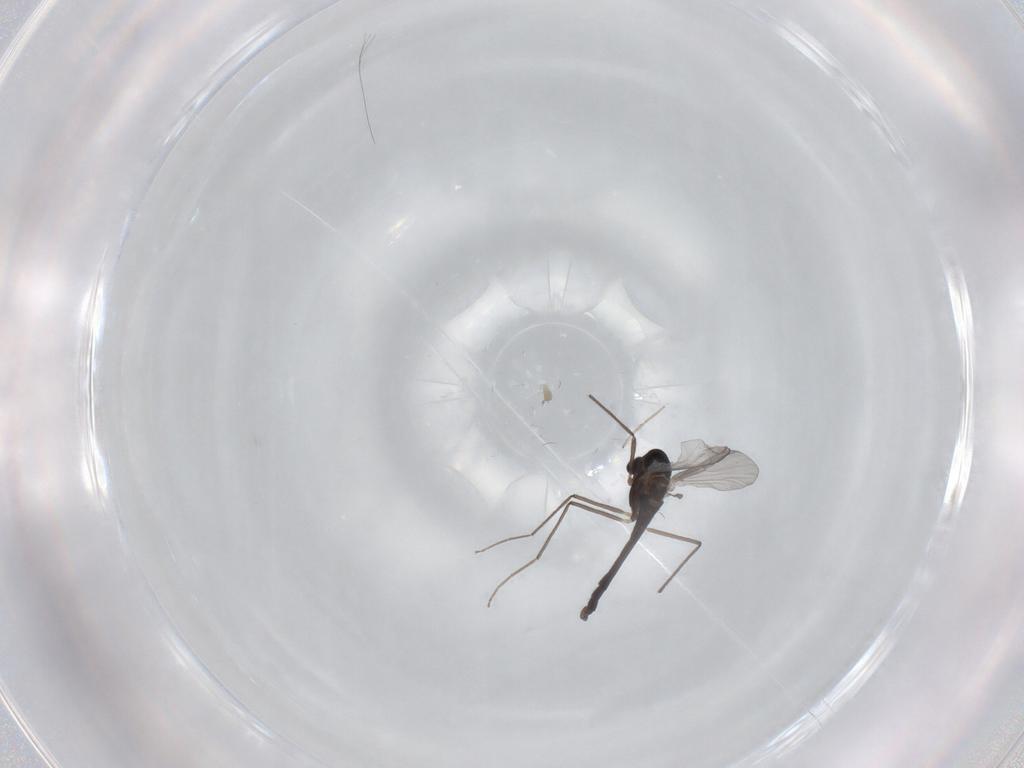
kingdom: Animalia
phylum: Arthropoda
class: Insecta
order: Diptera
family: Chironomidae
